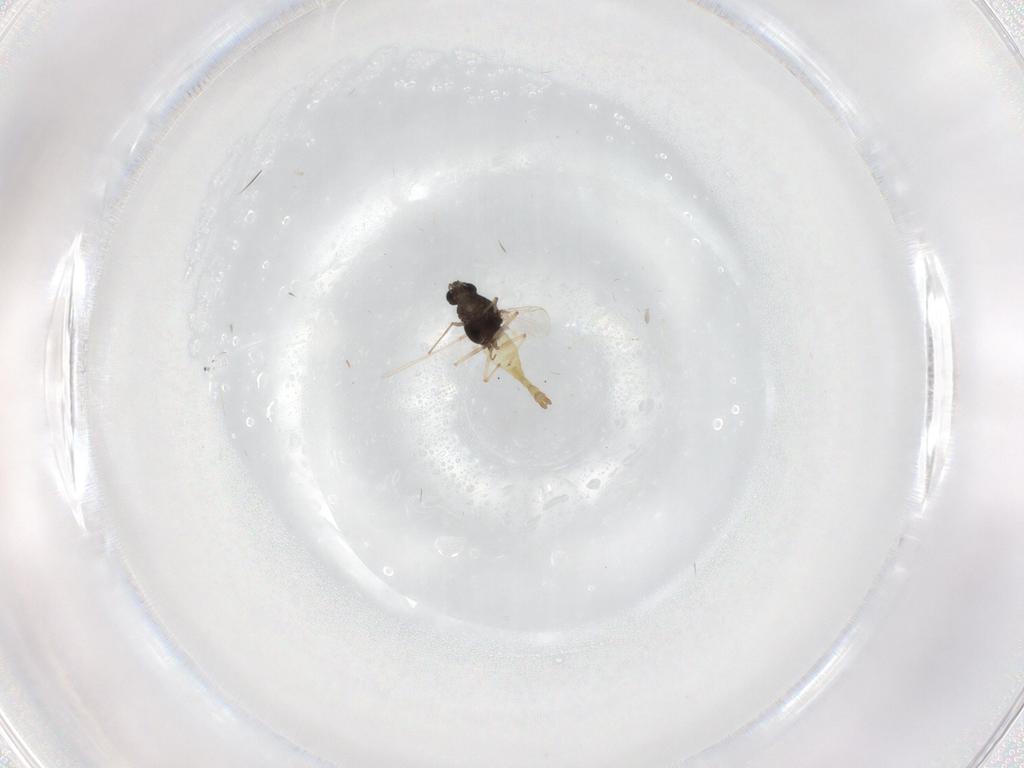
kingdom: Animalia
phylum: Arthropoda
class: Insecta
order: Diptera
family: Chironomidae
